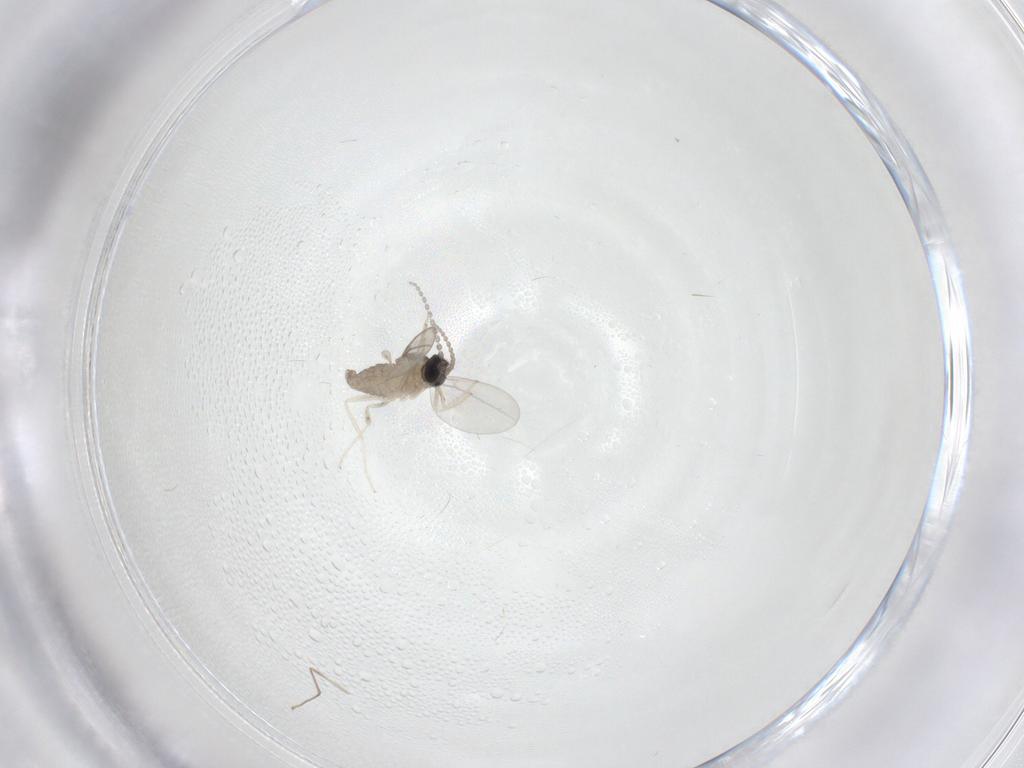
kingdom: Animalia
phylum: Arthropoda
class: Insecta
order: Diptera
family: Cecidomyiidae
